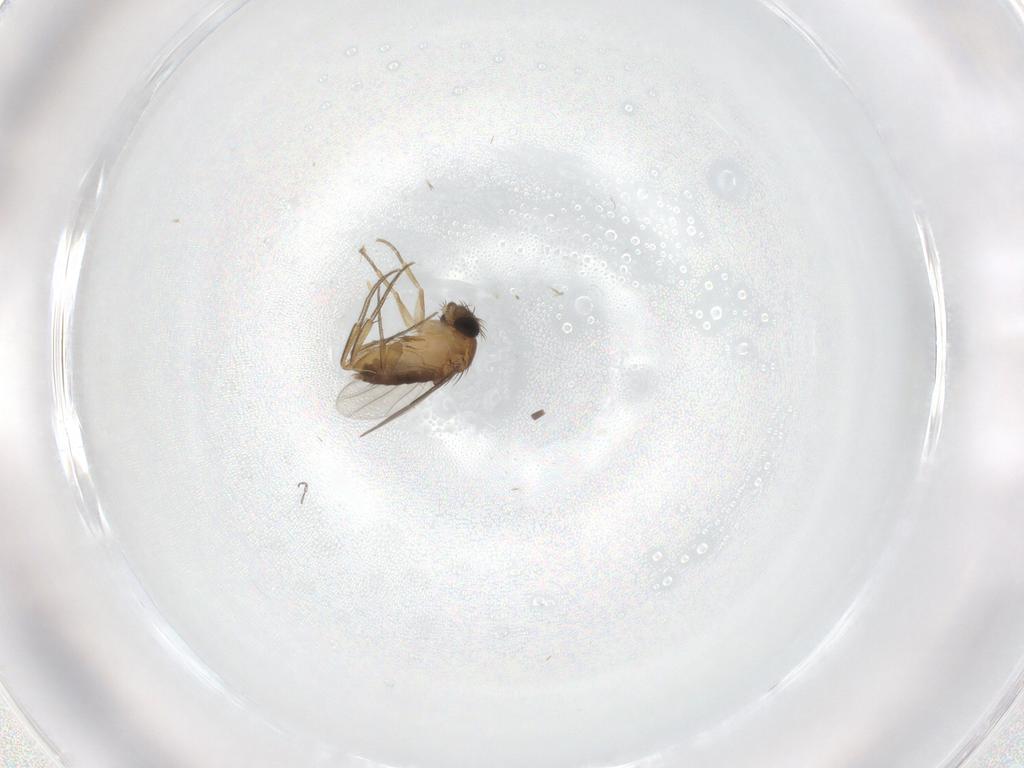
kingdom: Animalia
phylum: Arthropoda
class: Insecta
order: Diptera
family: Phoridae
